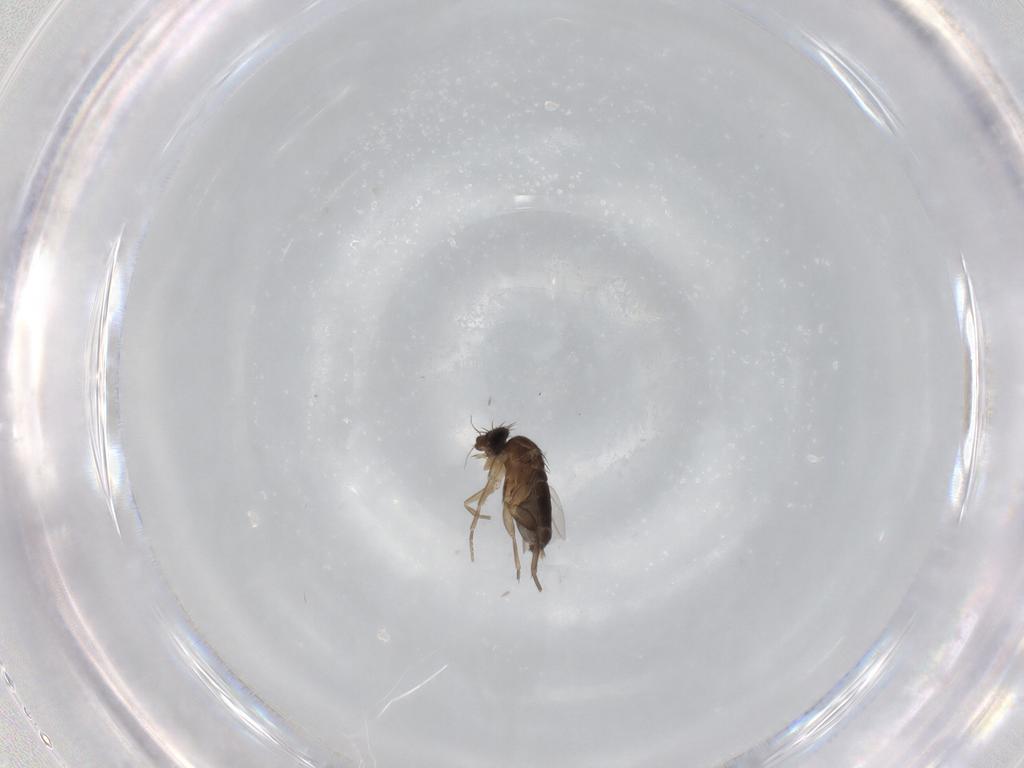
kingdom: Animalia
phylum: Arthropoda
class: Insecta
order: Diptera
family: Phoridae
